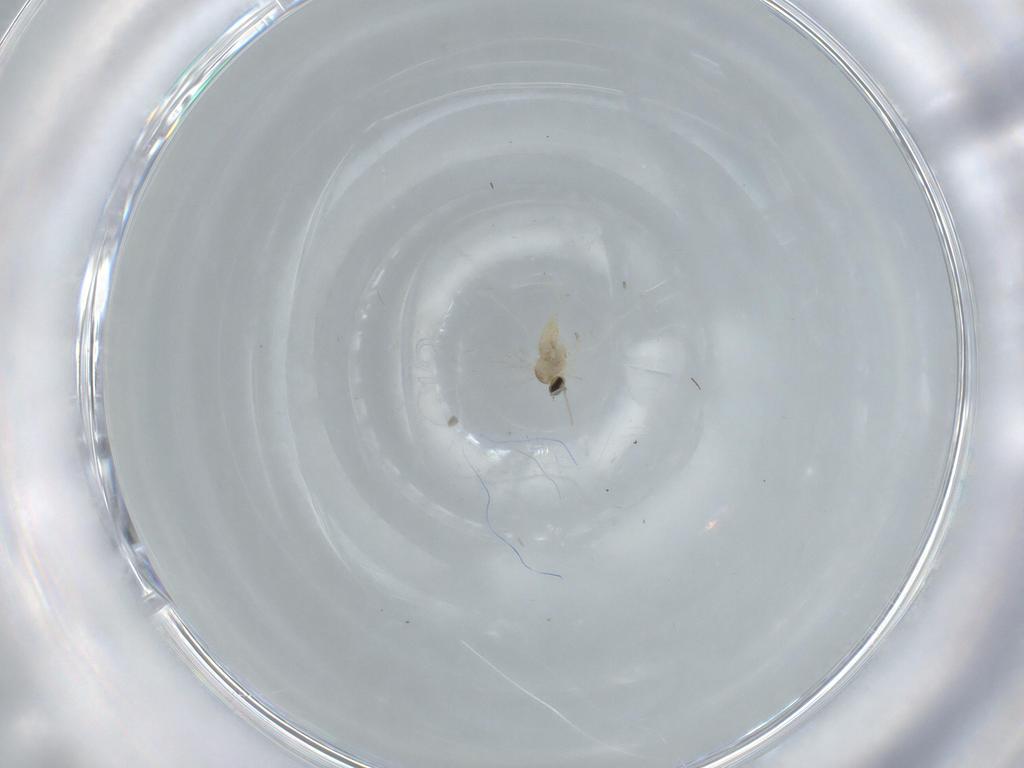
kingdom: Animalia
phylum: Arthropoda
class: Insecta
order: Diptera
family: Cecidomyiidae
